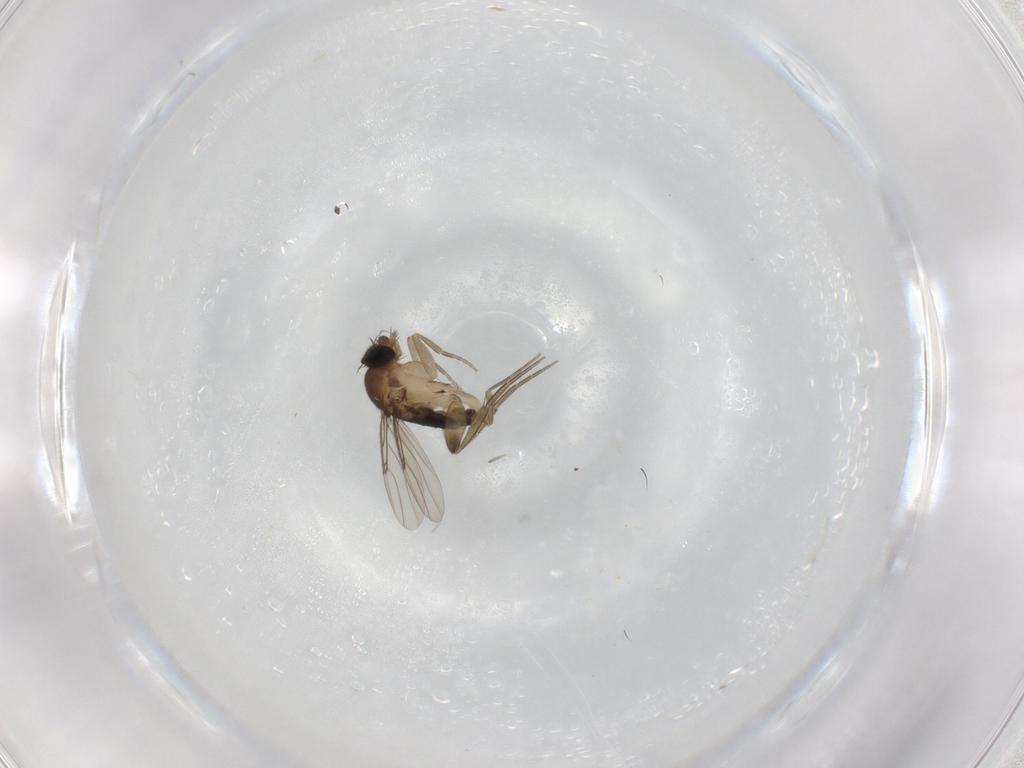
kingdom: Animalia
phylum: Arthropoda
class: Insecta
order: Diptera
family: Phoridae
